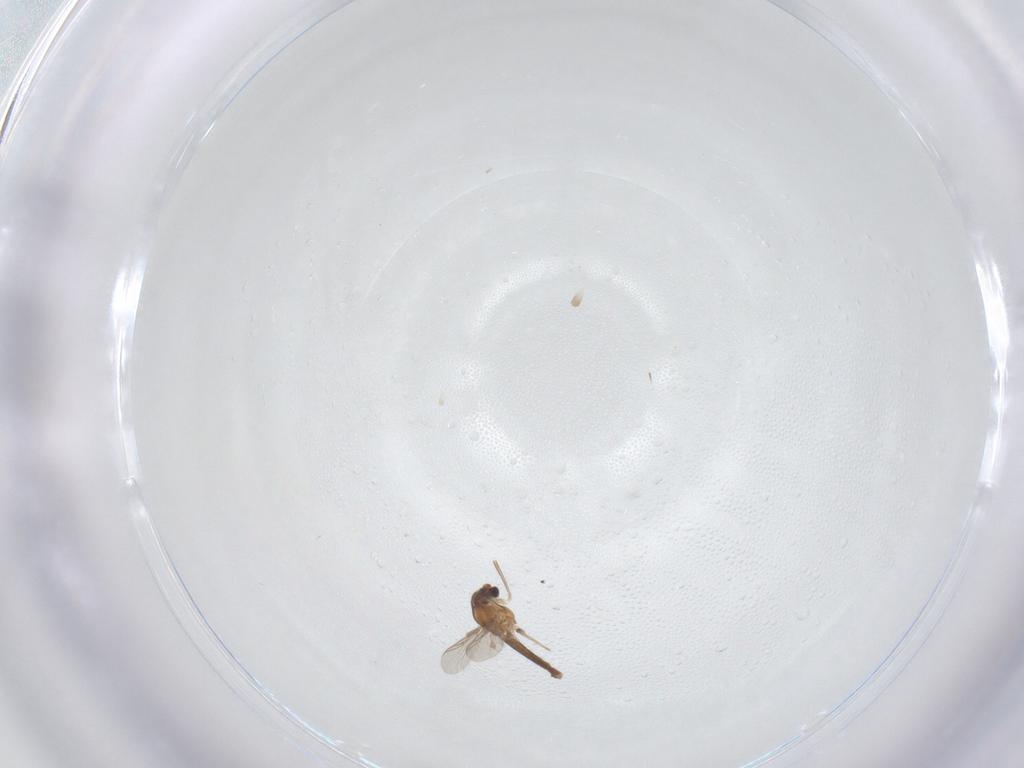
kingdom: Animalia
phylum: Arthropoda
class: Insecta
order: Diptera
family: Chironomidae
